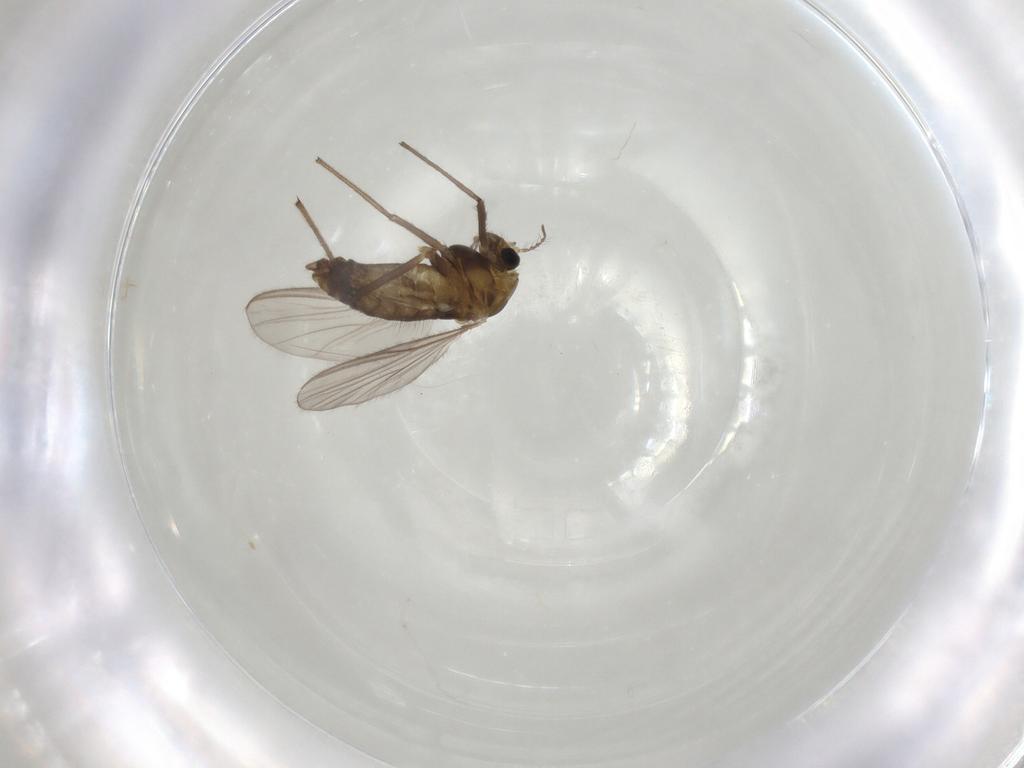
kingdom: Animalia
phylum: Arthropoda
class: Insecta
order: Diptera
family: Chironomidae
